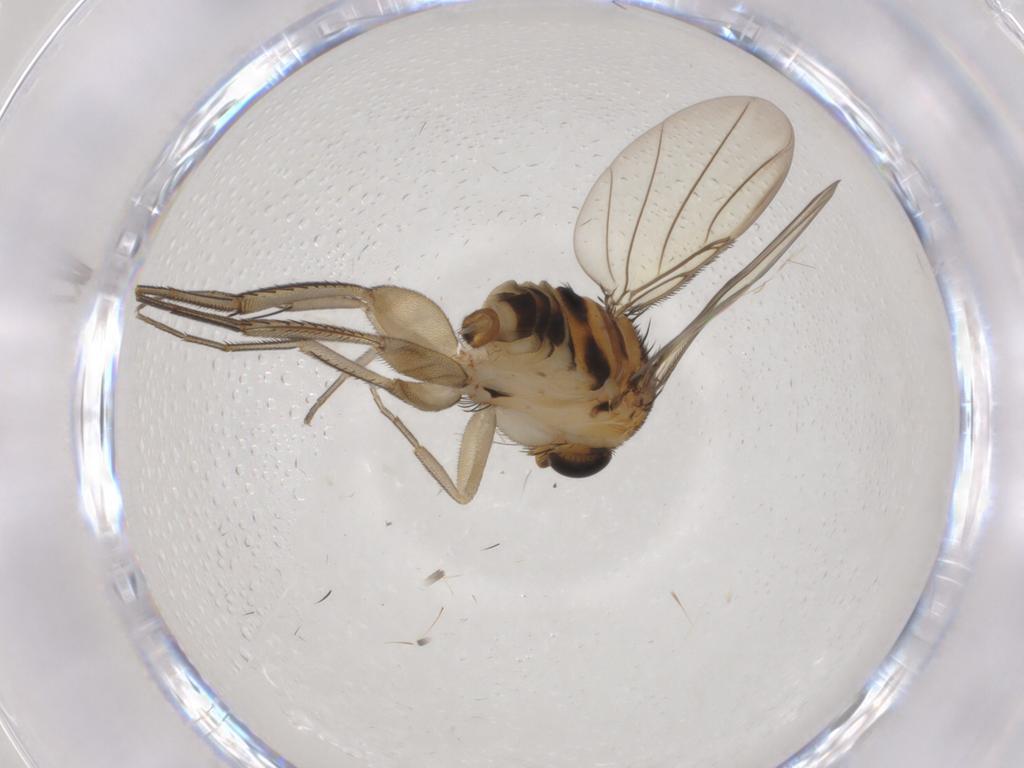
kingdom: Animalia
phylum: Arthropoda
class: Insecta
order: Diptera
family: Phoridae
